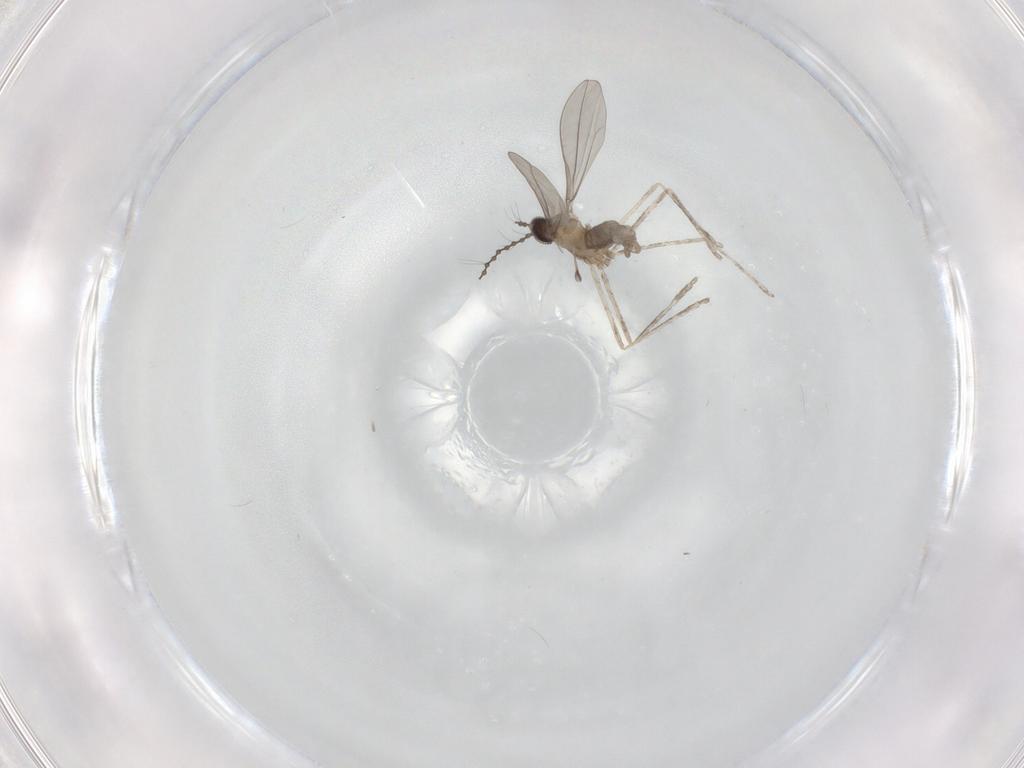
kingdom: Animalia
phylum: Arthropoda
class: Insecta
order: Diptera
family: Cecidomyiidae
